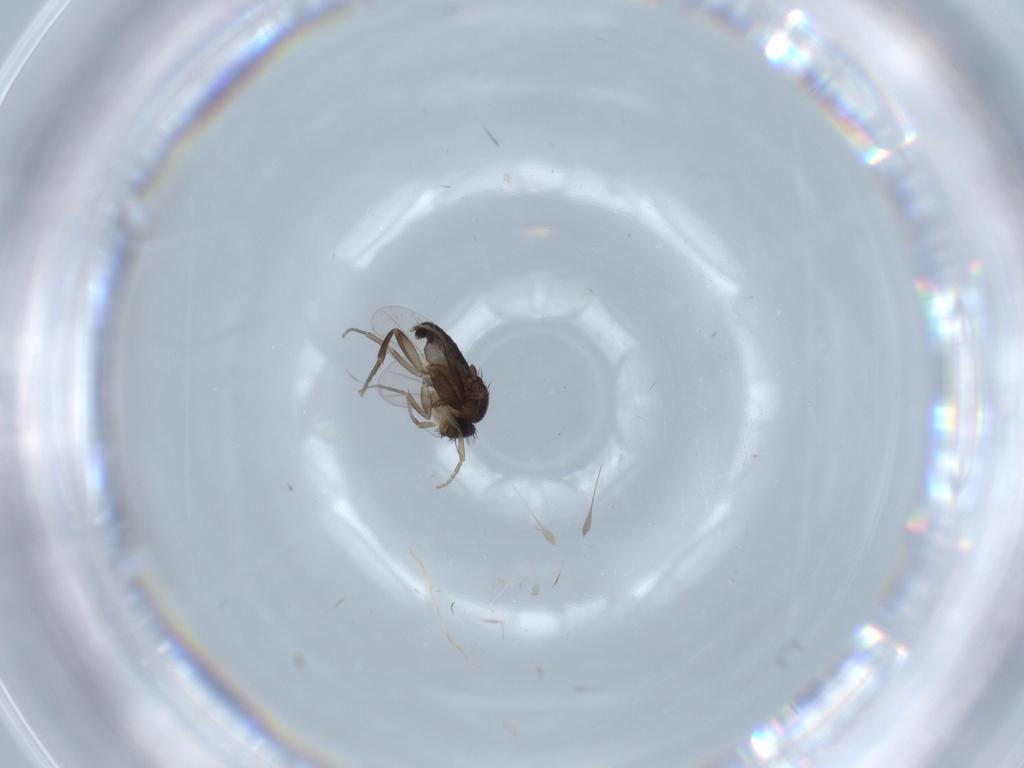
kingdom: Animalia
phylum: Arthropoda
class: Insecta
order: Diptera
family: Phoridae
